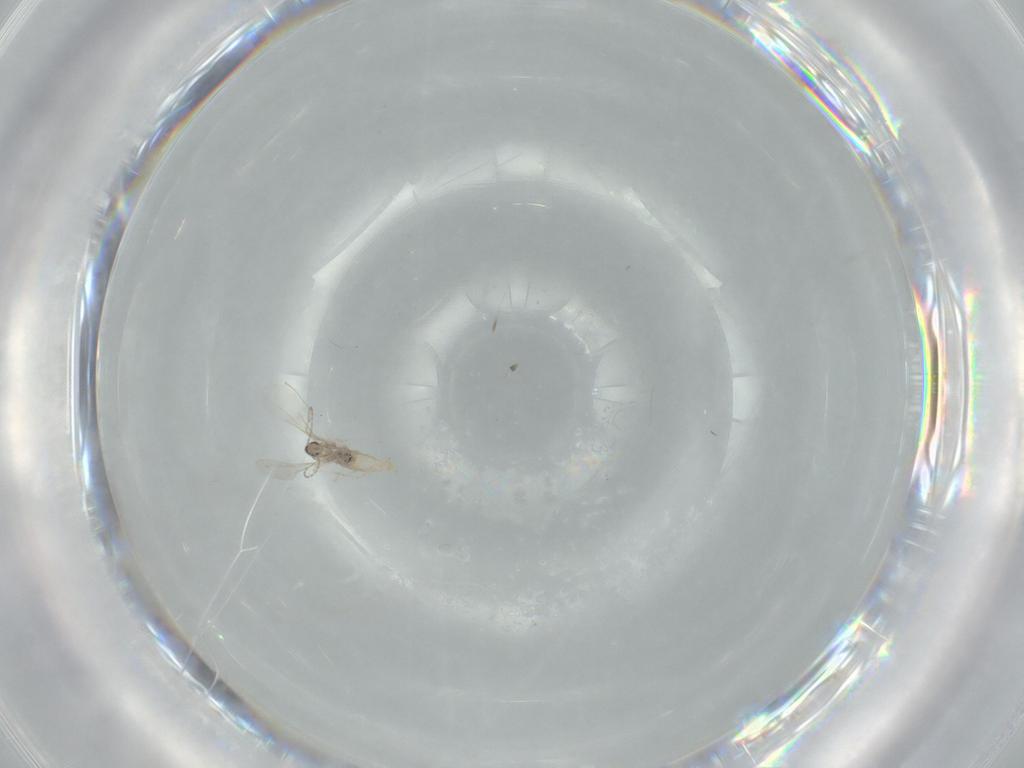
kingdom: Animalia
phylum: Arthropoda
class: Insecta
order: Diptera
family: Cecidomyiidae
